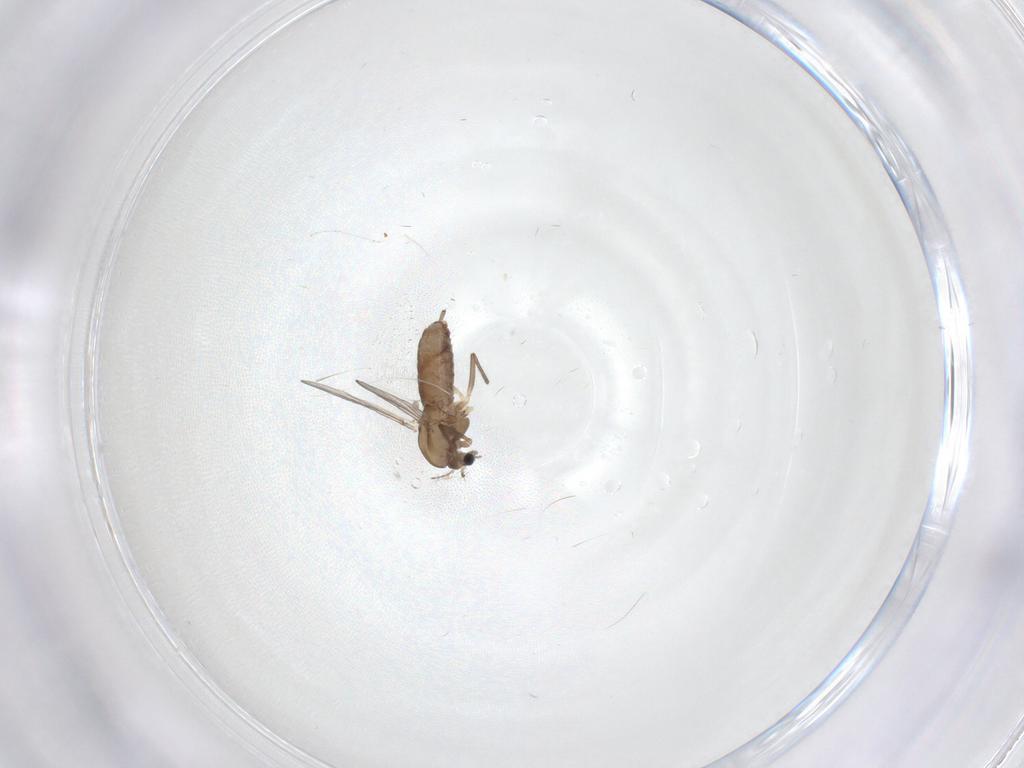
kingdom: Animalia
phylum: Arthropoda
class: Insecta
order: Diptera
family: Chironomidae
